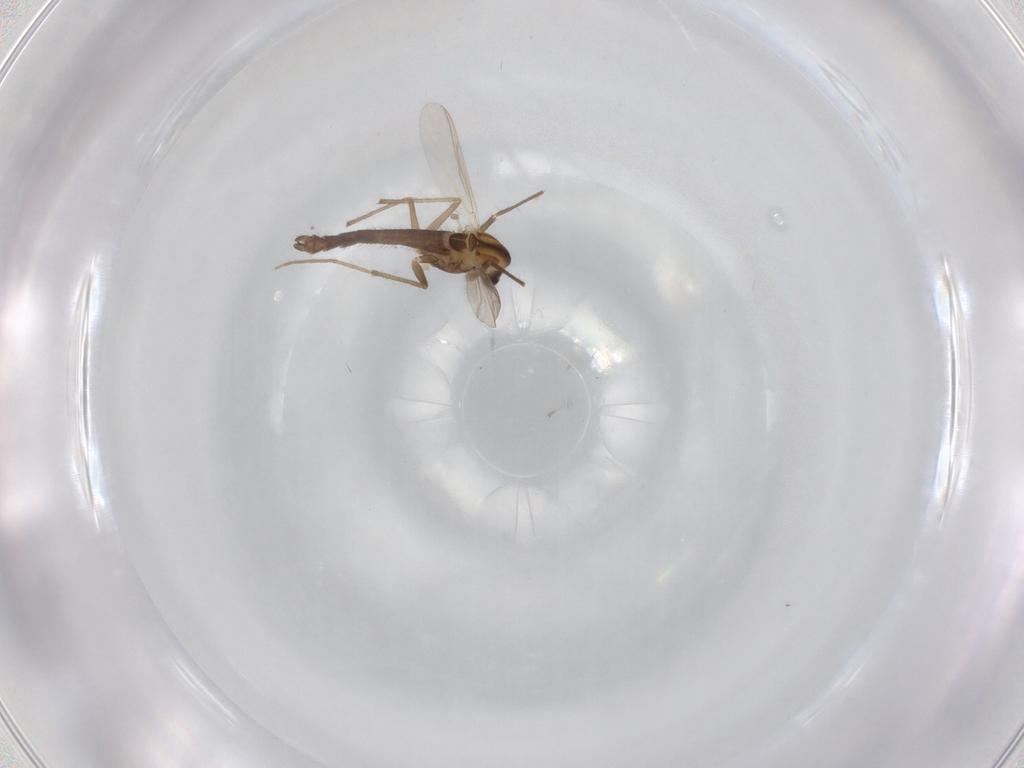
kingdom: Animalia
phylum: Arthropoda
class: Insecta
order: Diptera
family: Chironomidae
